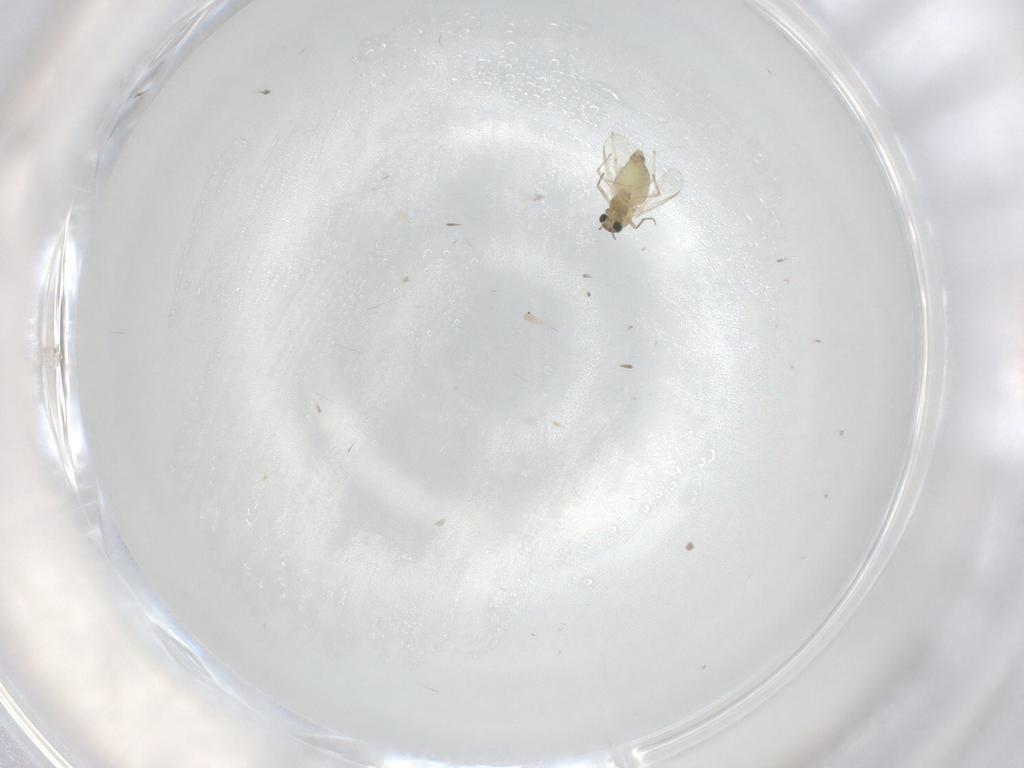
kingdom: Animalia
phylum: Arthropoda
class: Insecta
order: Diptera
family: Chironomidae
